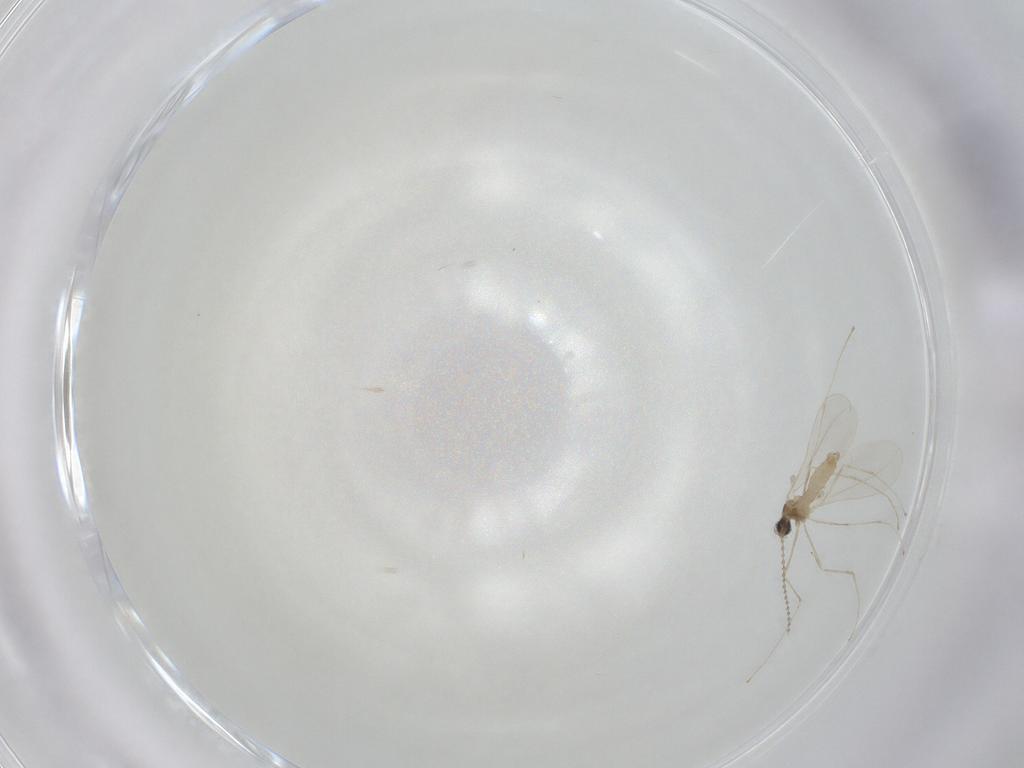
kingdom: Animalia
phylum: Arthropoda
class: Insecta
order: Diptera
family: Cecidomyiidae
